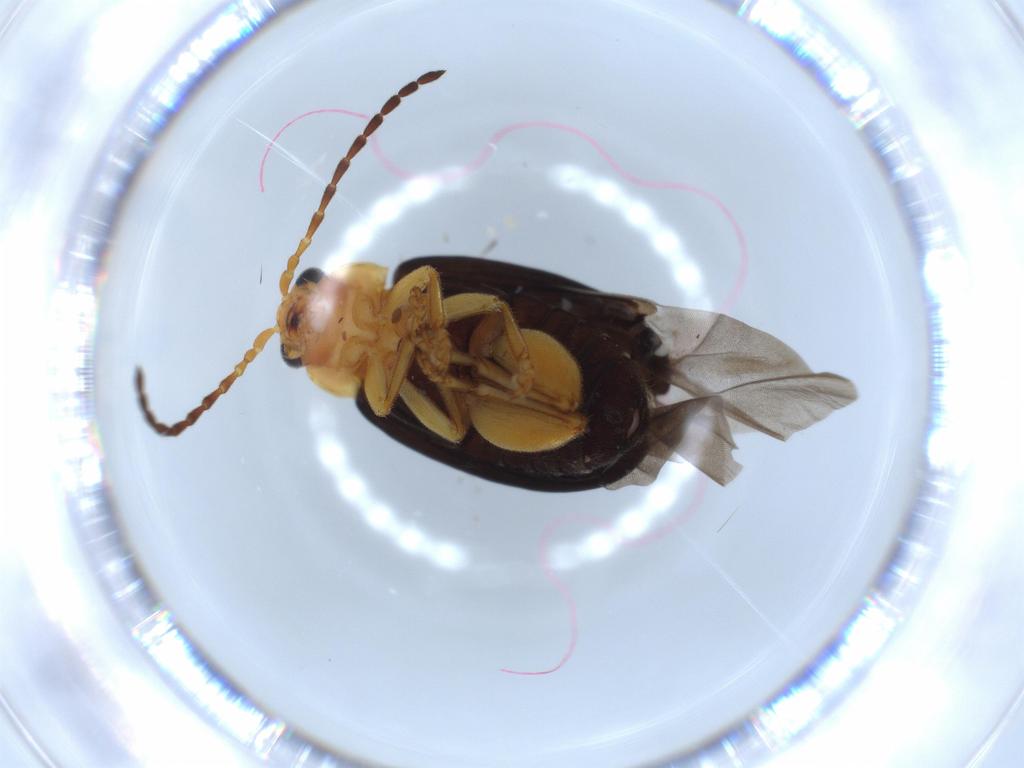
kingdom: Animalia
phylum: Arthropoda
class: Insecta
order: Coleoptera
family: Chrysomelidae
